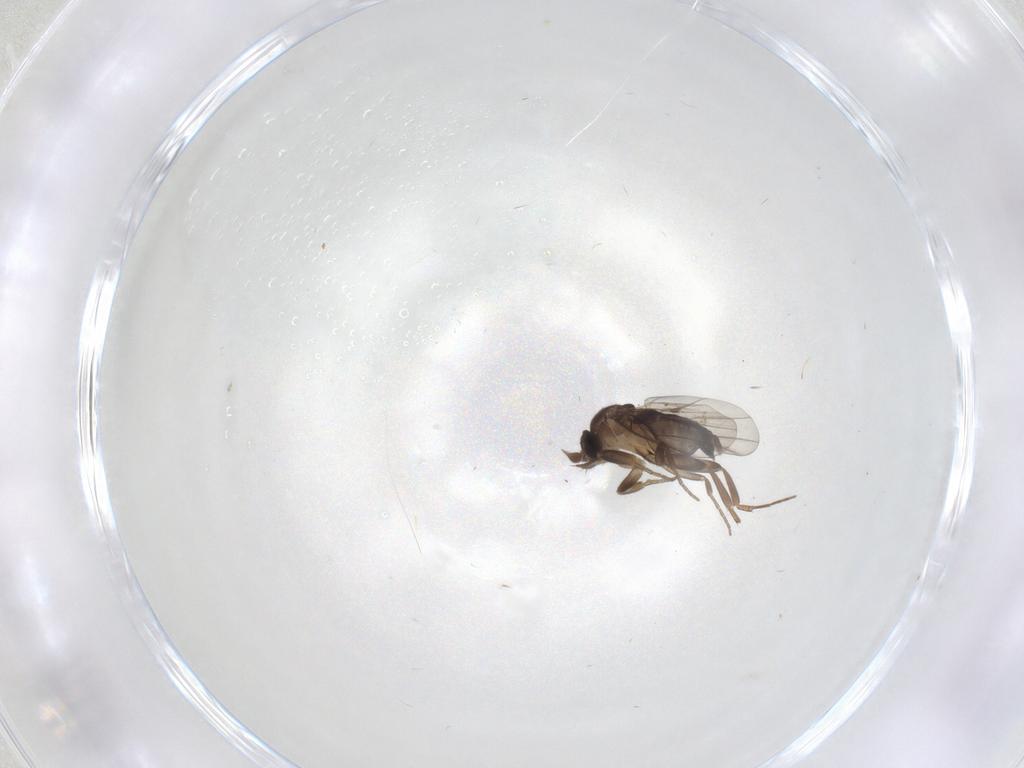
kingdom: Animalia
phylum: Arthropoda
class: Insecta
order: Diptera
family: Phoridae
